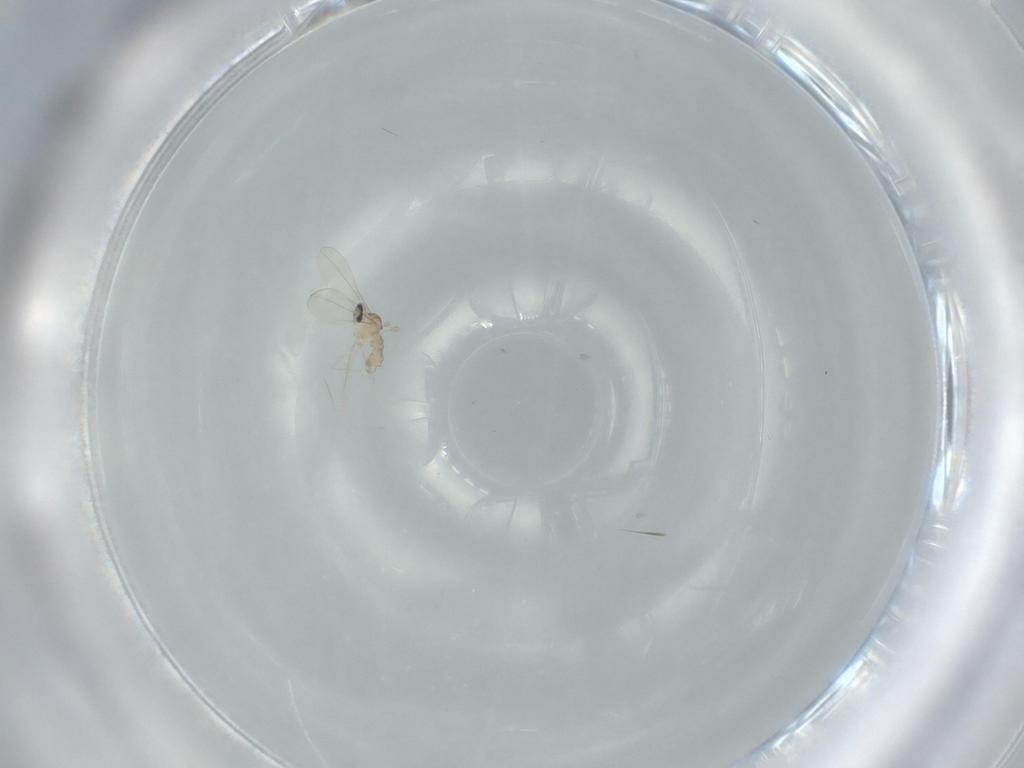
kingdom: Animalia
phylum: Arthropoda
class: Insecta
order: Diptera
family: Cecidomyiidae
